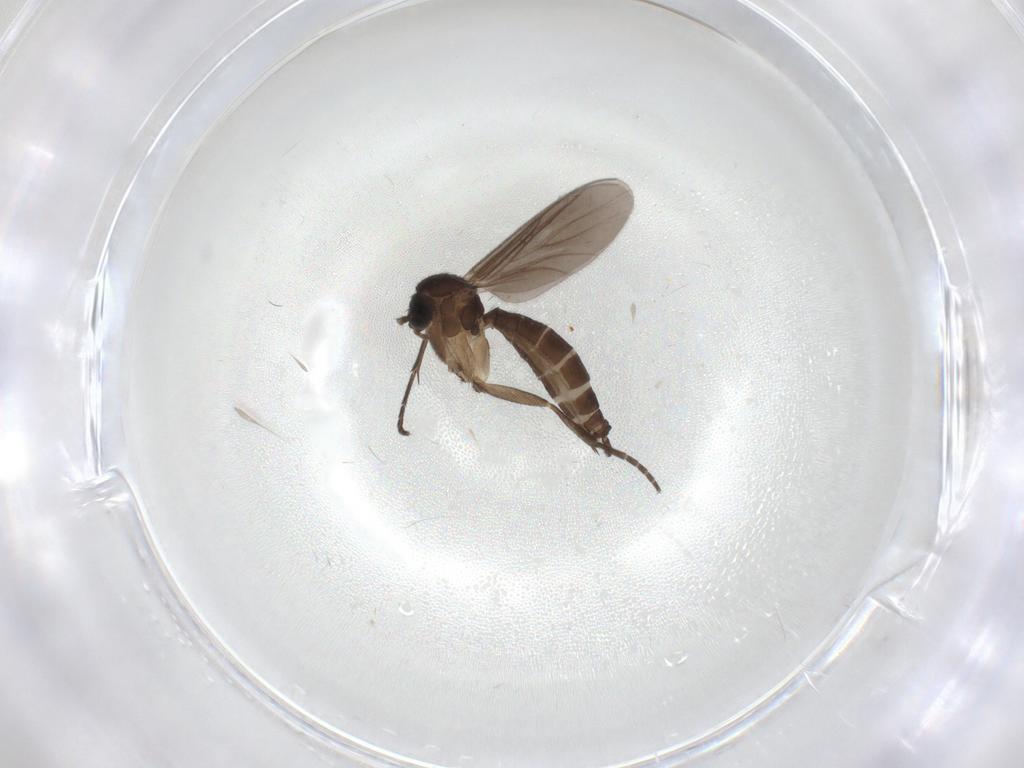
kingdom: Animalia
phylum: Arthropoda
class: Insecta
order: Diptera
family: Mycetophilidae
